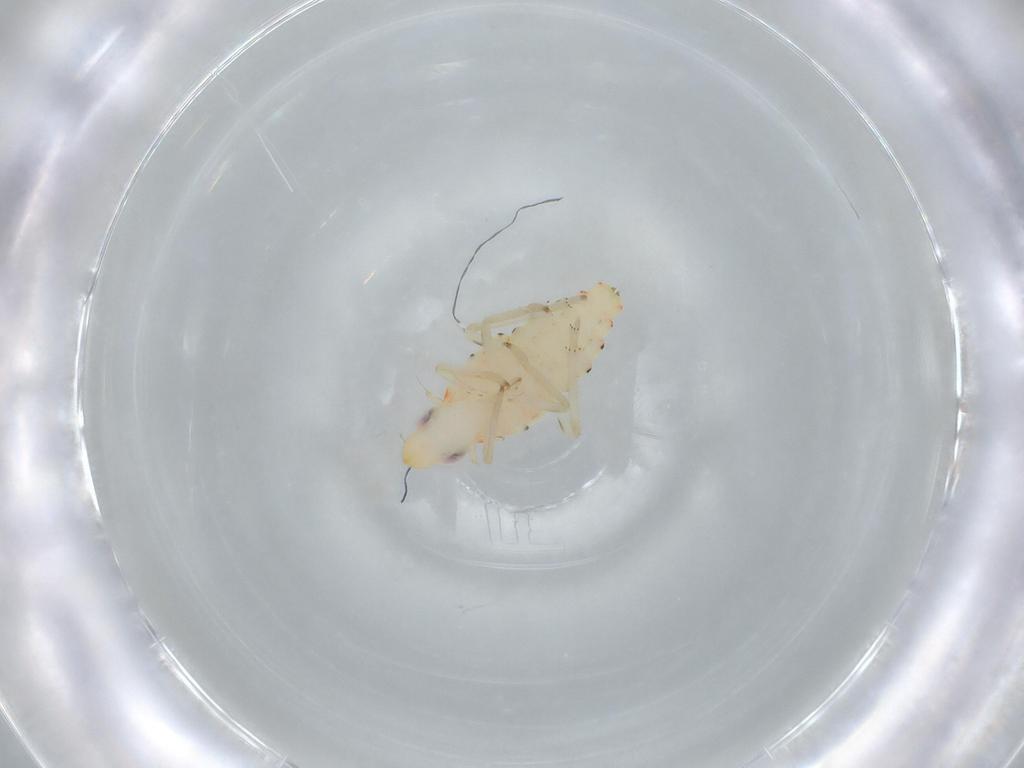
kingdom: Animalia
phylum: Arthropoda
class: Insecta
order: Hemiptera
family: Tropiduchidae
